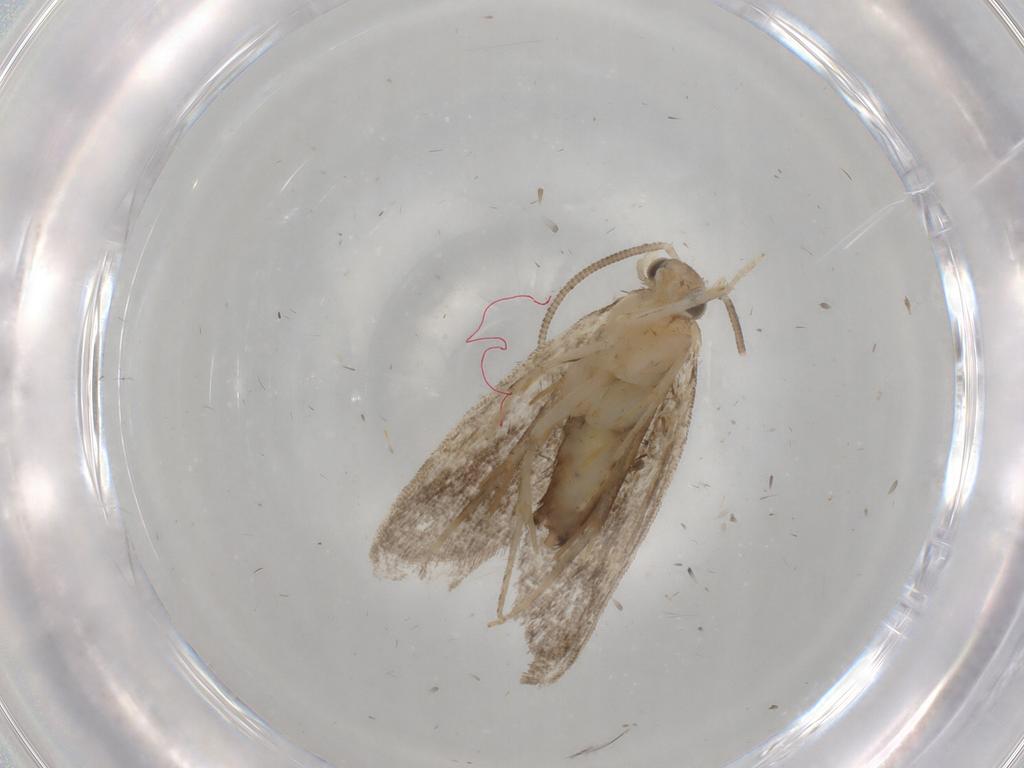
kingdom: Animalia
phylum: Arthropoda
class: Insecta
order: Lepidoptera
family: Dryadaulidae
